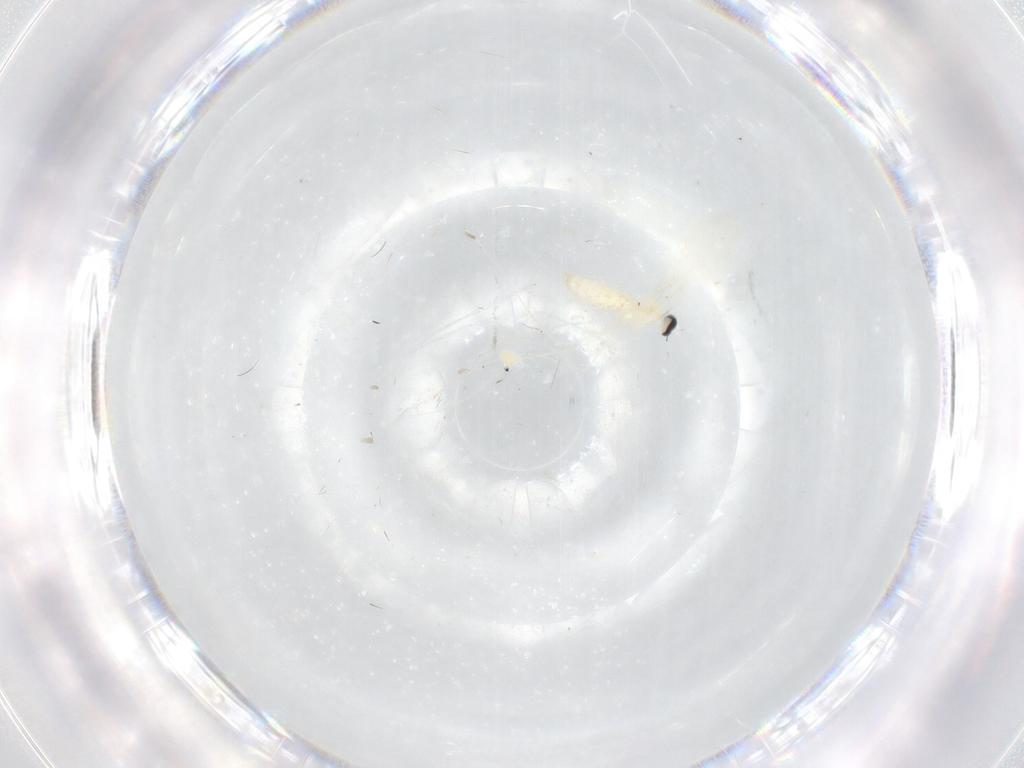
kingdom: Animalia
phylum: Arthropoda
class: Insecta
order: Diptera
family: Cecidomyiidae
